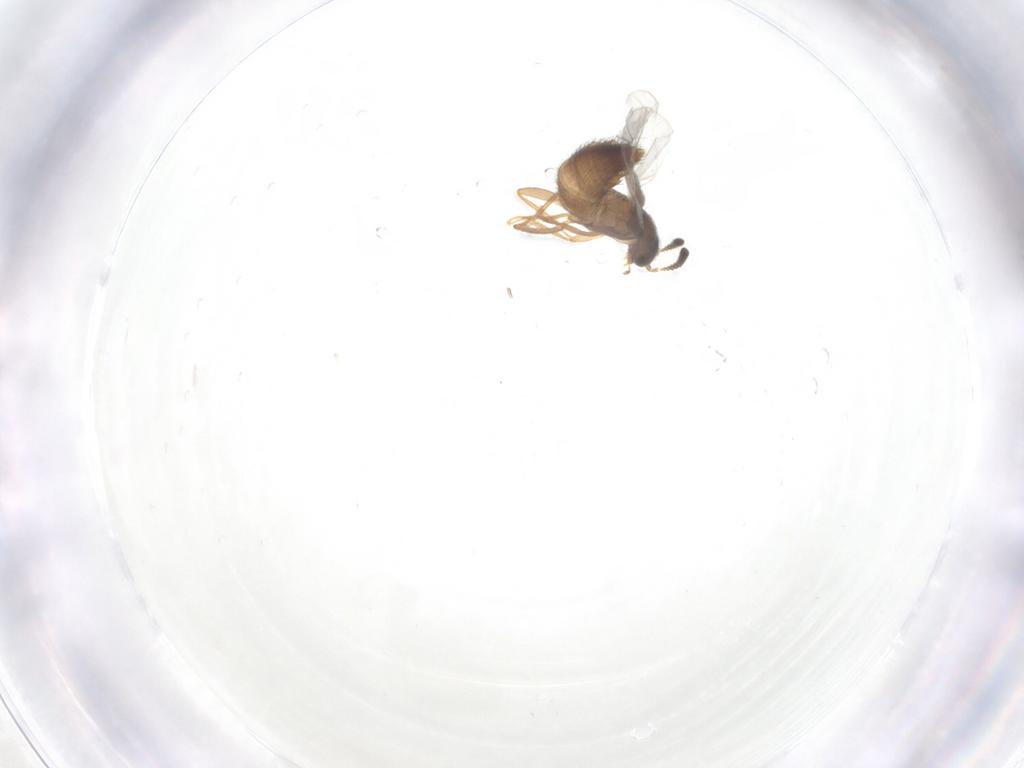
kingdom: Animalia
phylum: Arthropoda
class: Insecta
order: Coleoptera
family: Staphylinidae
